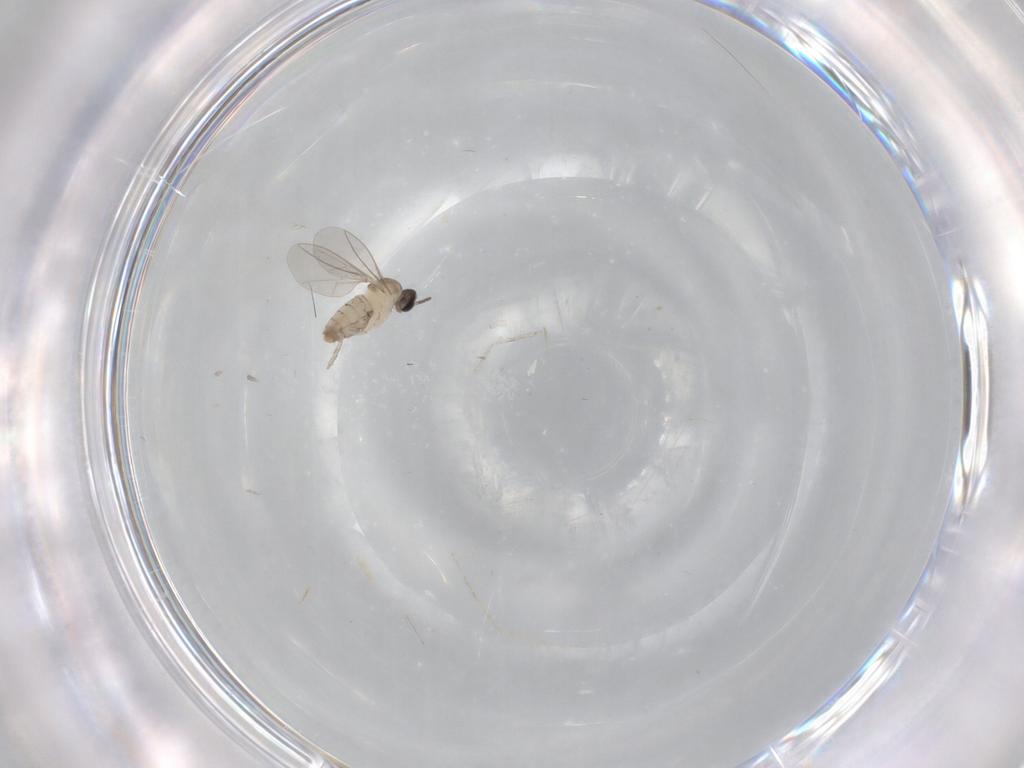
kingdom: Animalia
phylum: Arthropoda
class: Insecta
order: Diptera
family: Cecidomyiidae
